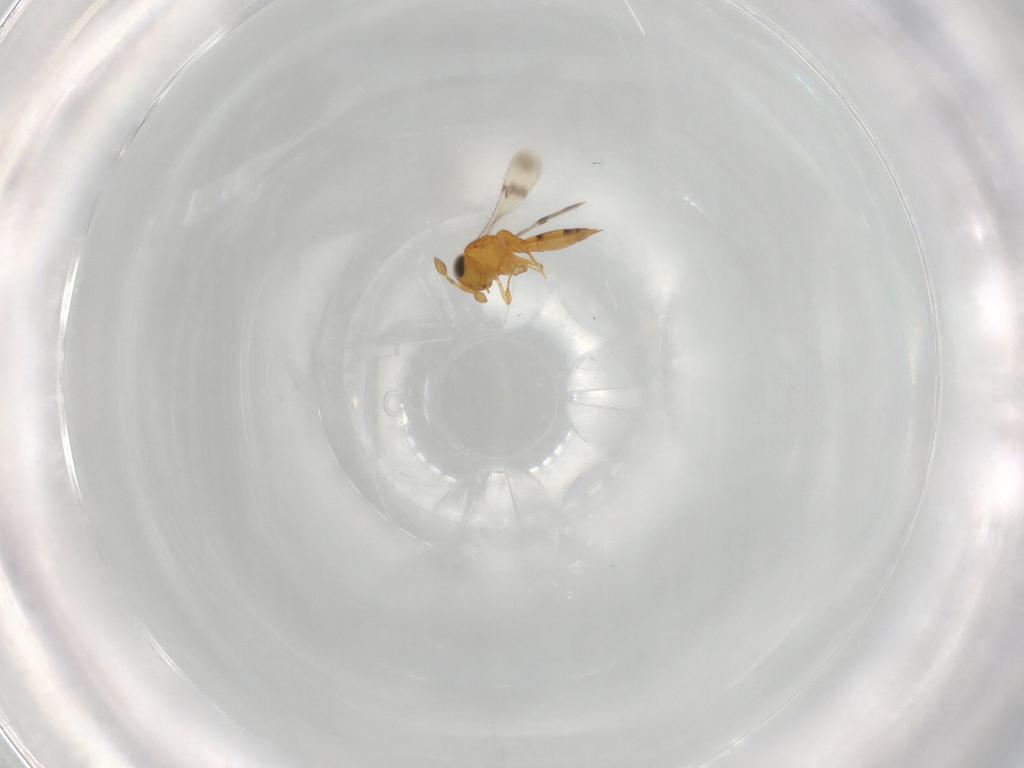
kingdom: Animalia
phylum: Arthropoda
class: Insecta
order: Hymenoptera
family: Scelionidae
